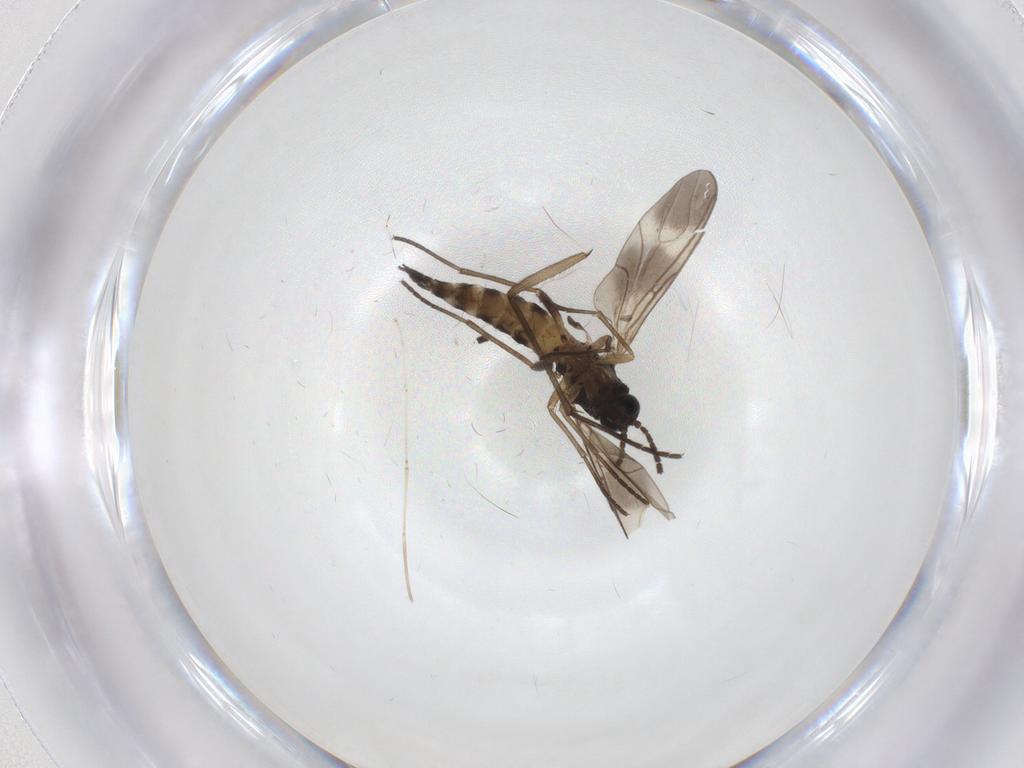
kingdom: Animalia
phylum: Arthropoda
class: Insecta
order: Diptera
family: Sciaridae
